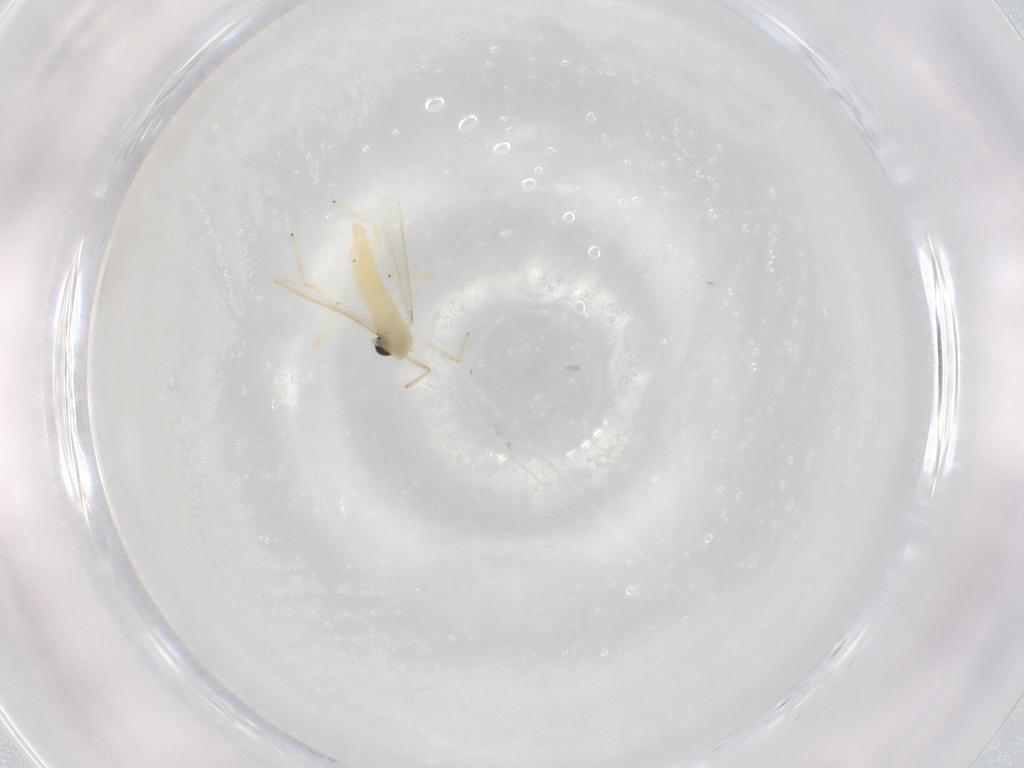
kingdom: Animalia
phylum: Arthropoda
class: Insecta
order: Diptera
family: Chironomidae
